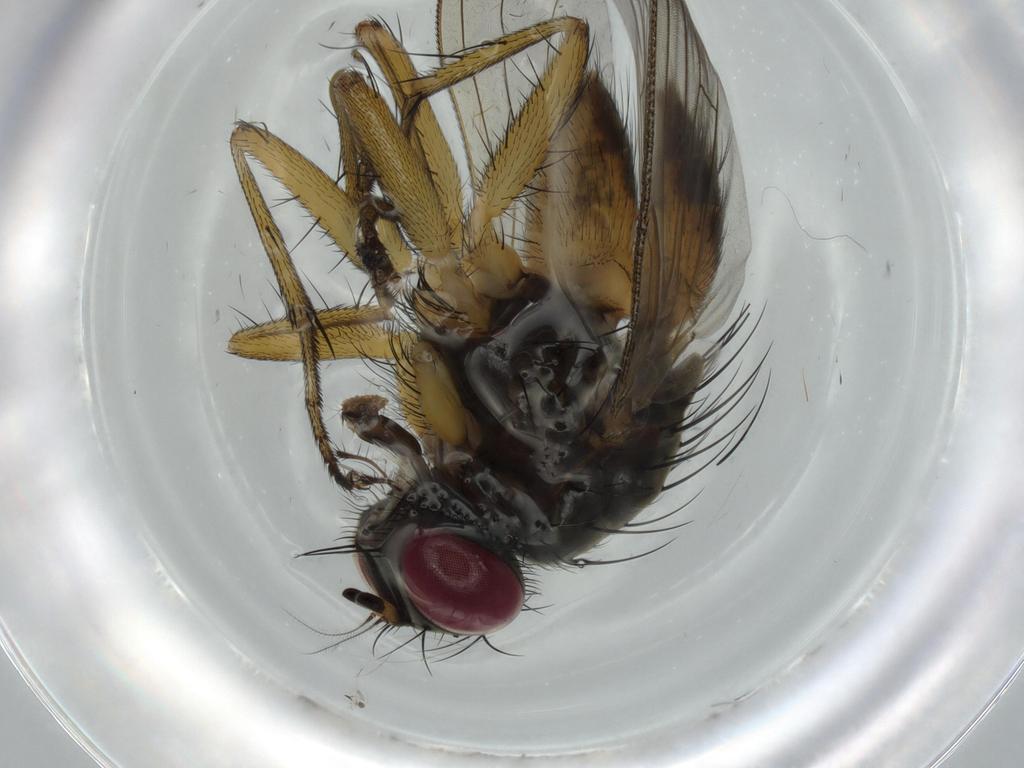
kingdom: Animalia
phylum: Arthropoda
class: Insecta
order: Diptera
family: Muscidae
